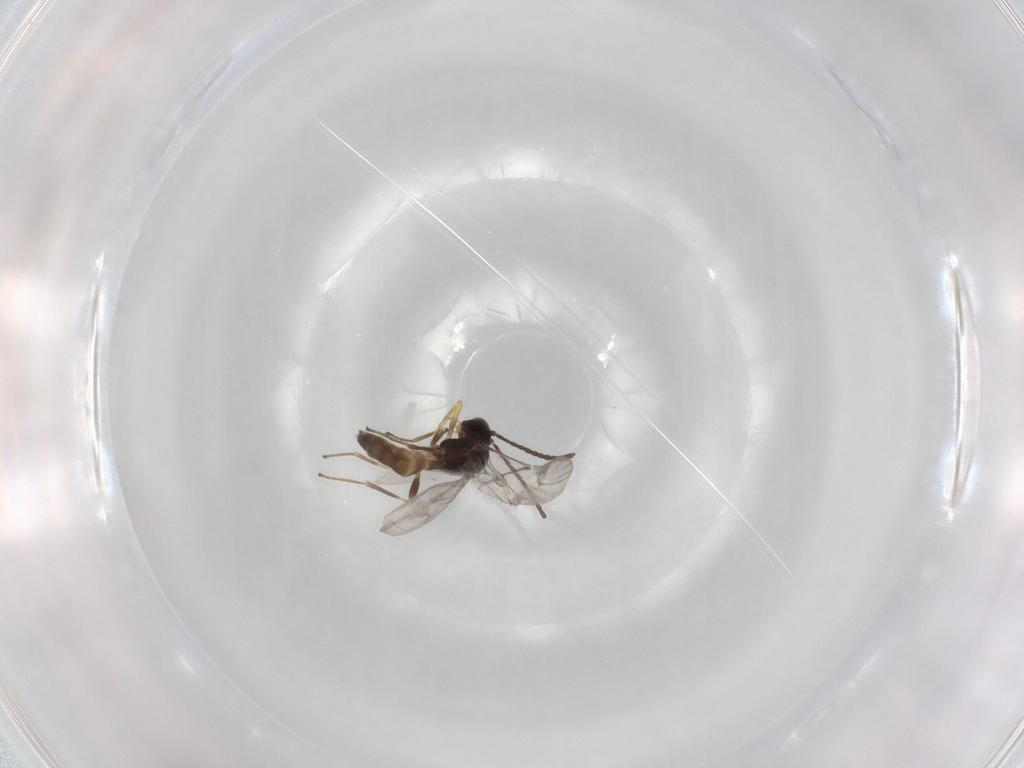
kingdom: Animalia
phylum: Arthropoda
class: Insecta
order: Hymenoptera
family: Braconidae
